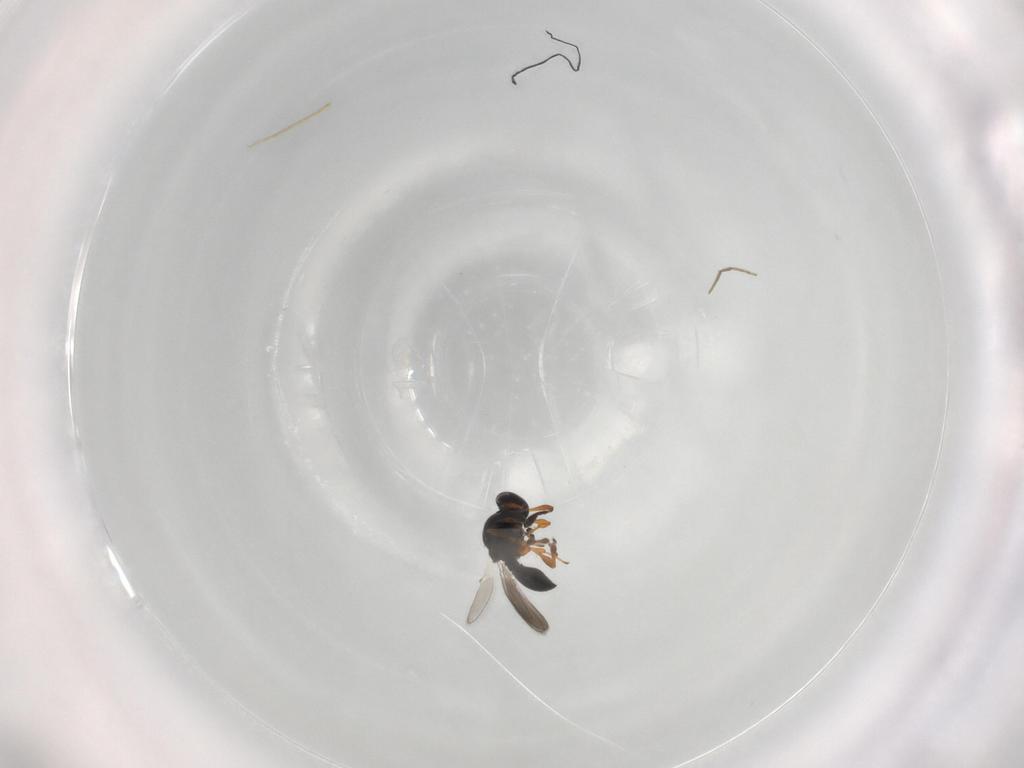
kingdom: Animalia
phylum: Arthropoda
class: Insecta
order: Hymenoptera
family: Platygastridae
